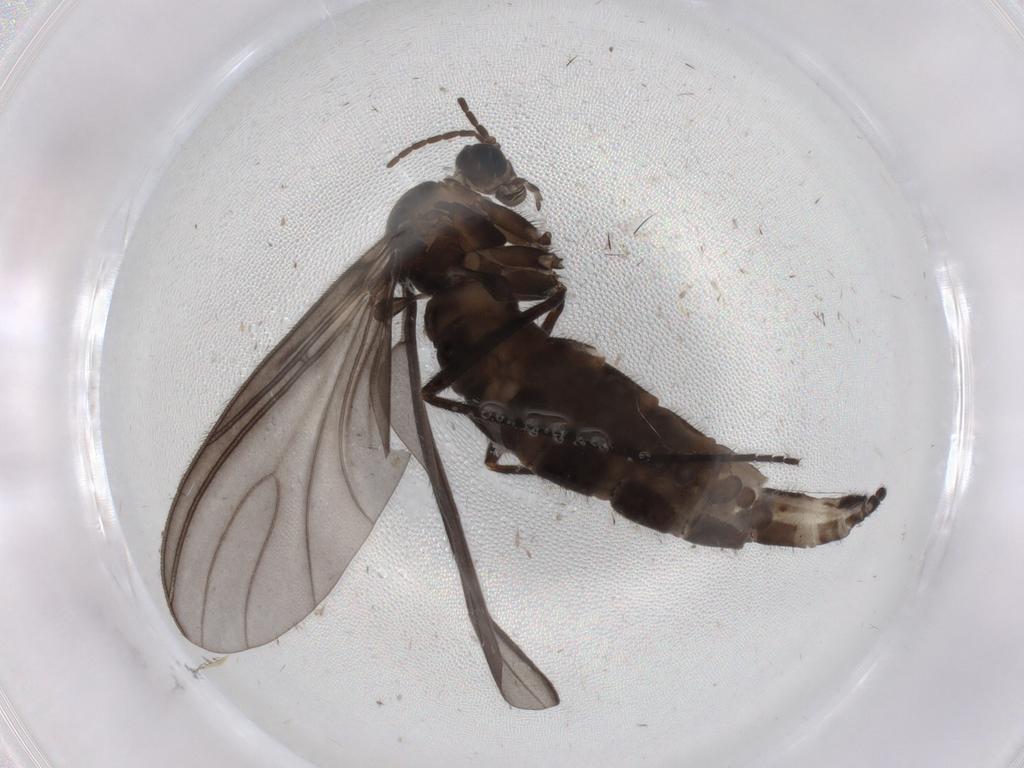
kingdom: Animalia
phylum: Arthropoda
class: Insecta
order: Diptera
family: Sciaridae
